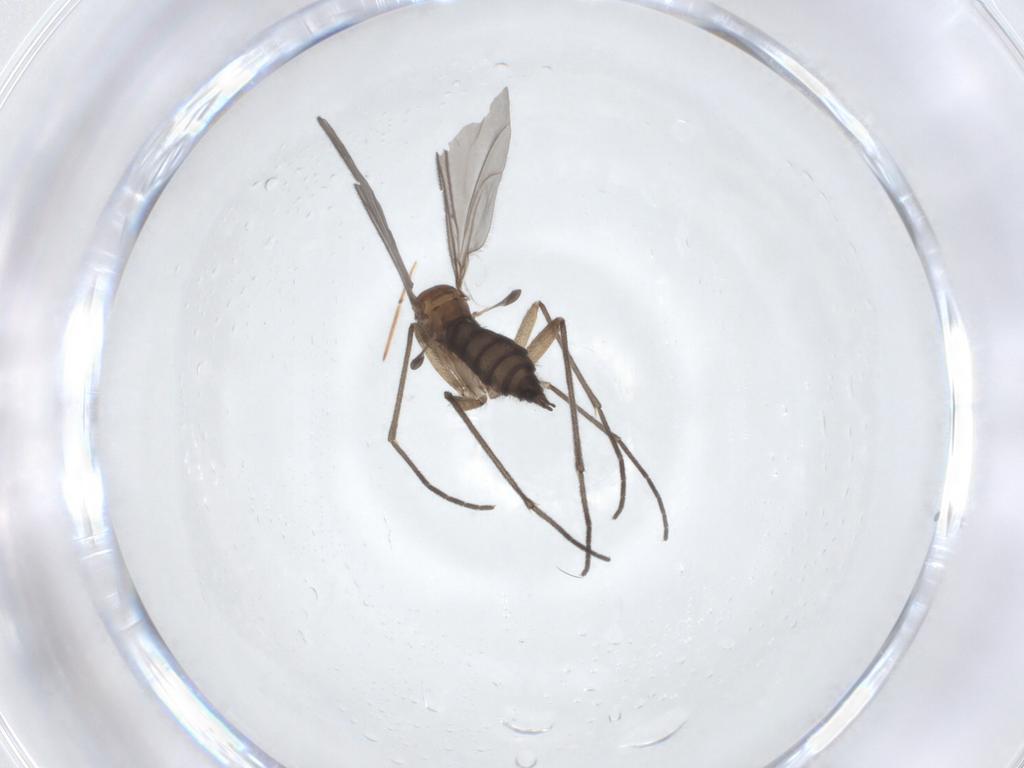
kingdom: Animalia
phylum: Arthropoda
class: Insecta
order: Diptera
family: Sciaridae
